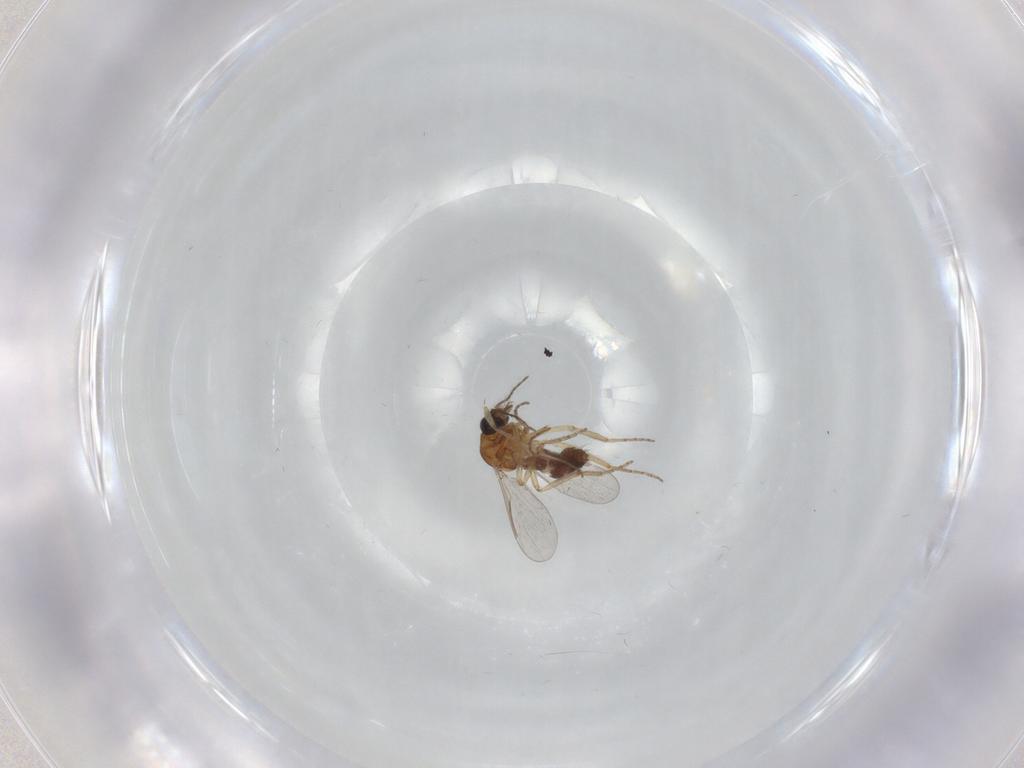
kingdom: Animalia
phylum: Arthropoda
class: Insecta
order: Diptera
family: Ceratopogonidae
